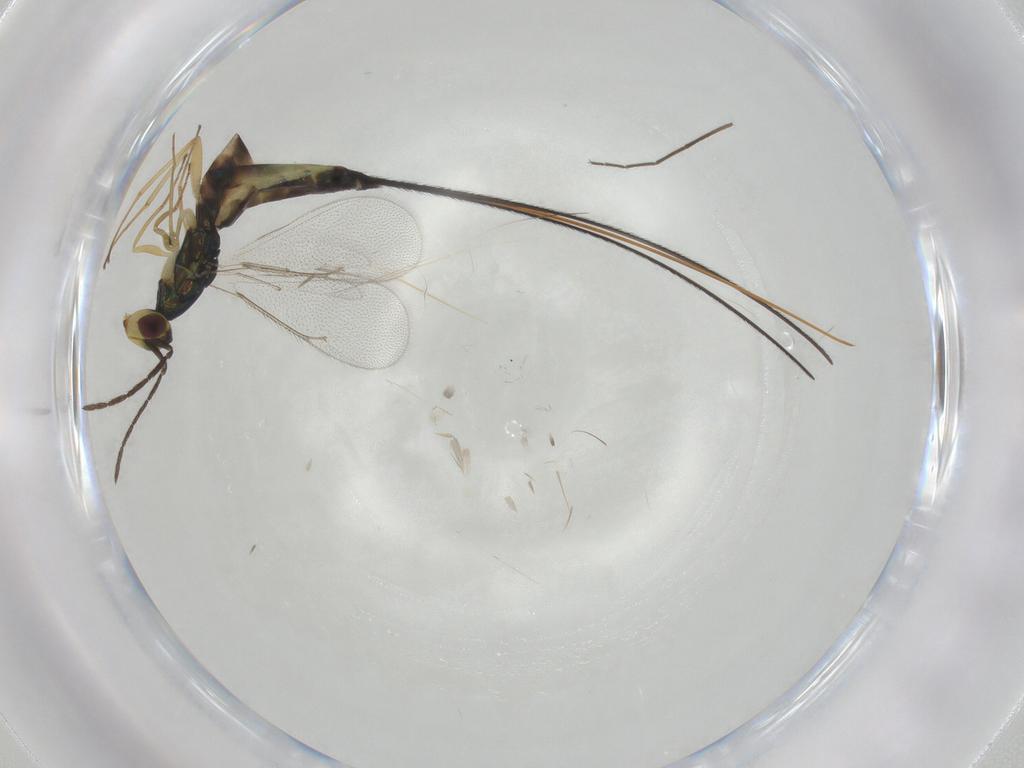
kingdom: Animalia
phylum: Arthropoda
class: Insecta
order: Hymenoptera
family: Eulophidae
